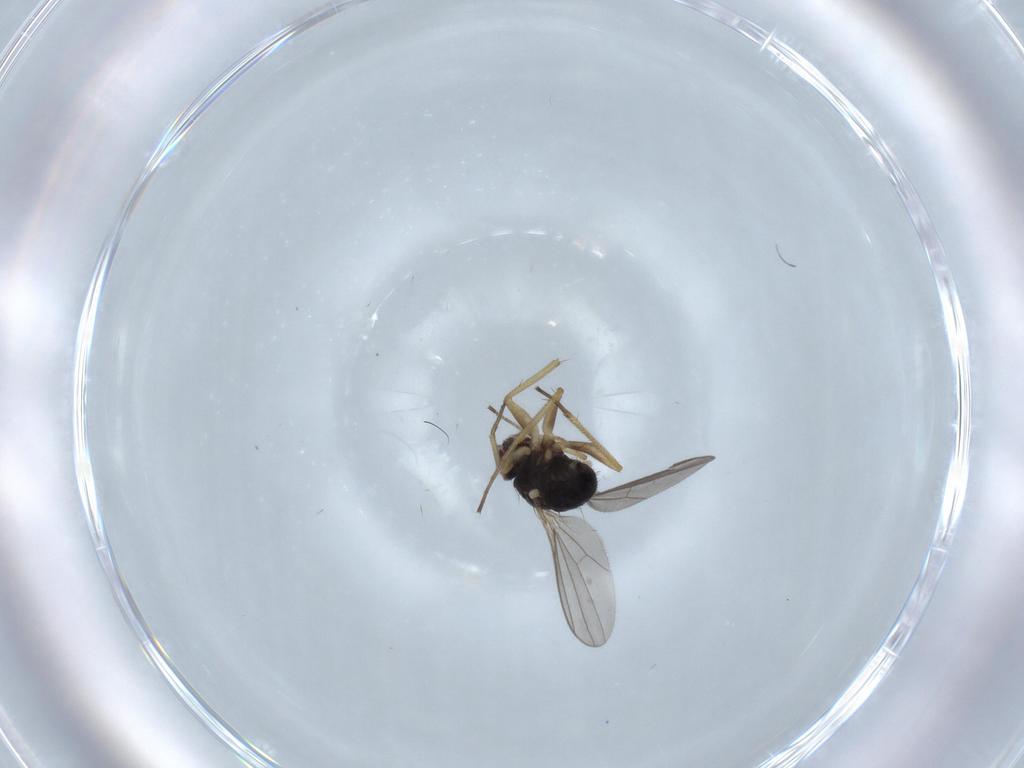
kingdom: Animalia
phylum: Arthropoda
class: Insecta
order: Diptera
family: Dolichopodidae
